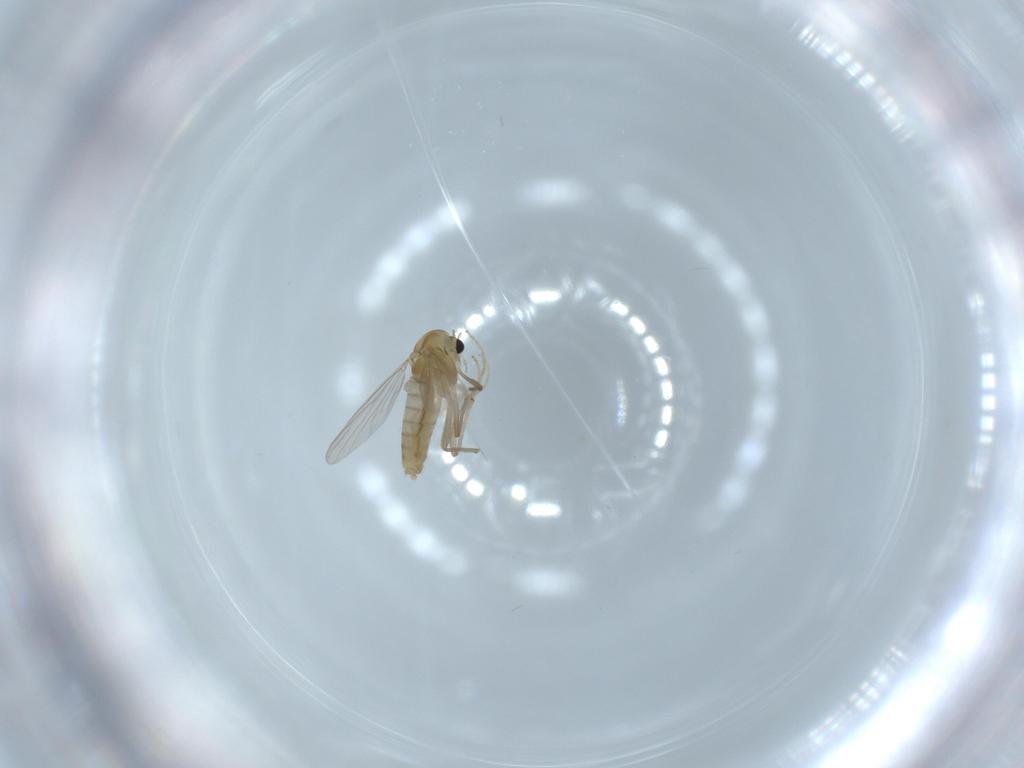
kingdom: Animalia
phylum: Arthropoda
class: Insecta
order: Diptera
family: Chironomidae
